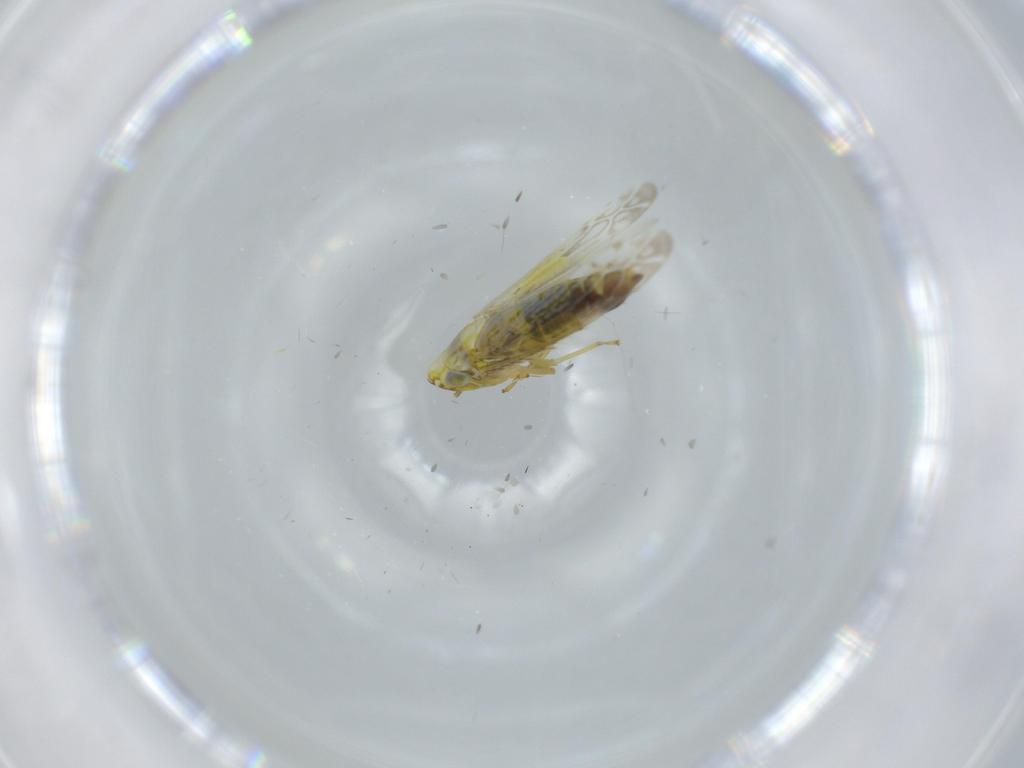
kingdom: Animalia
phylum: Arthropoda
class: Insecta
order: Hemiptera
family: Cicadellidae
